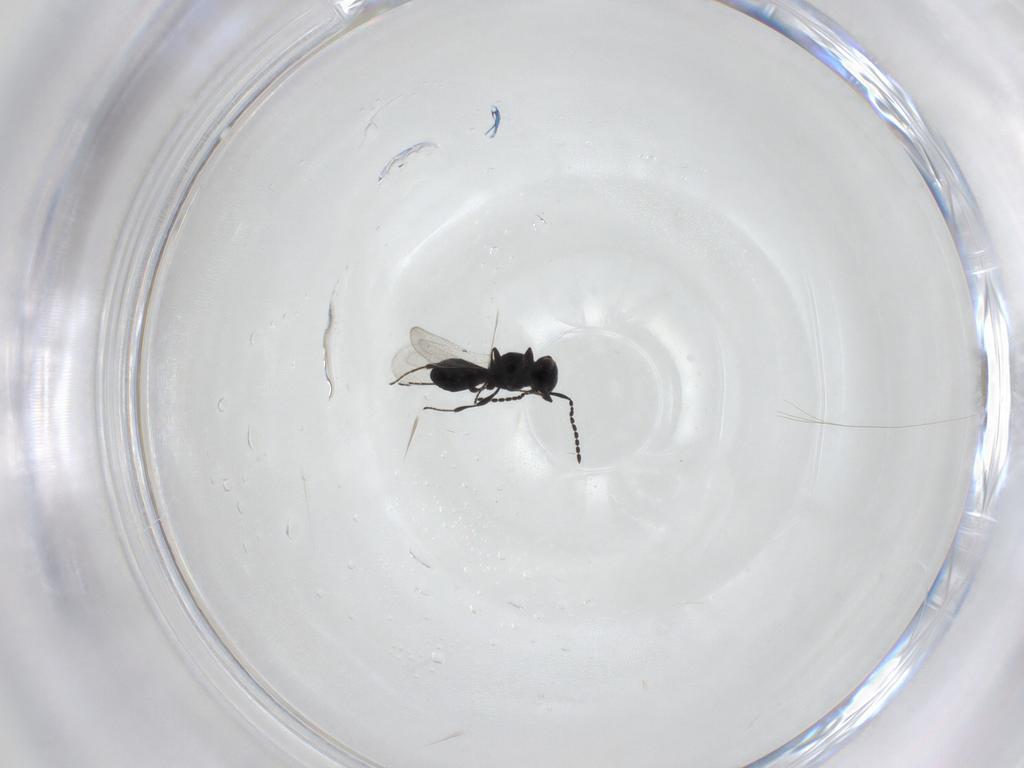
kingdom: Animalia
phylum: Arthropoda
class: Insecta
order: Hymenoptera
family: Platygastridae
